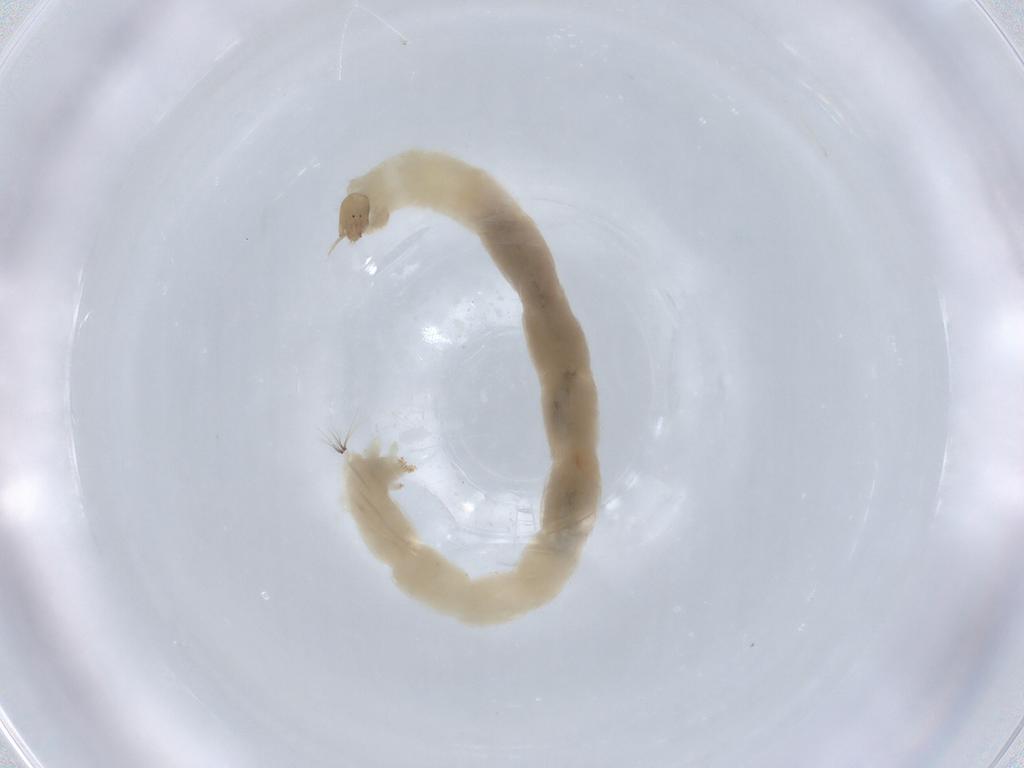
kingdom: Animalia
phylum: Arthropoda
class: Insecta
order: Diptera
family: Chironomidae
